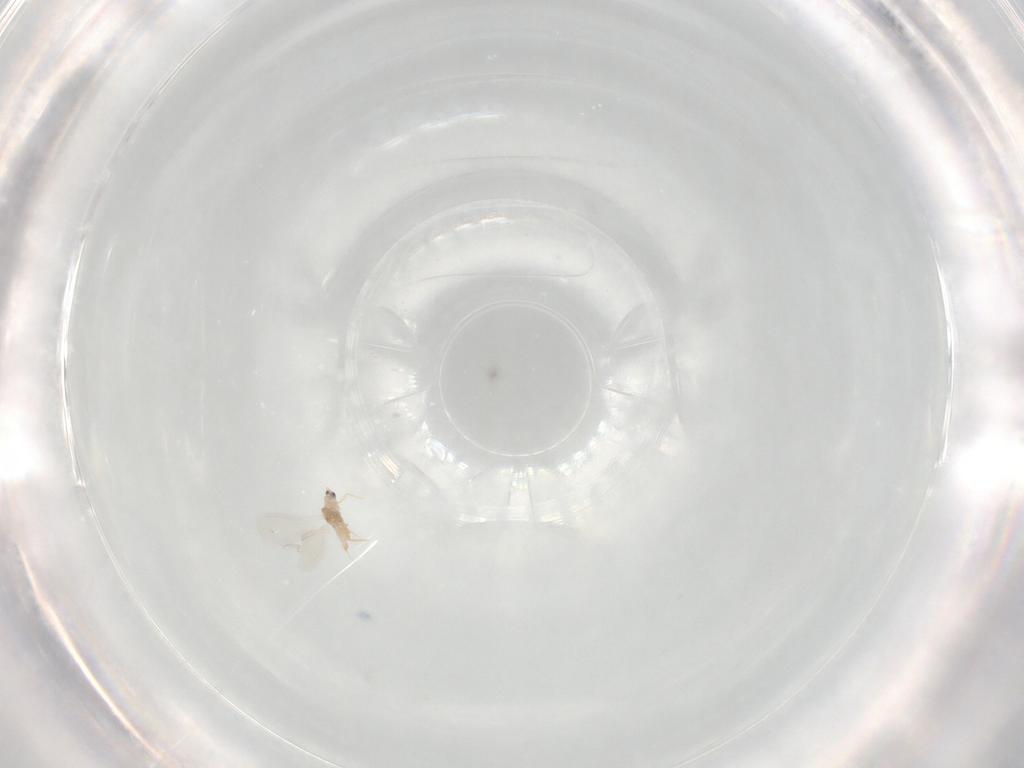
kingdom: Animalia
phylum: Arthropoda
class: Insecta
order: Hemiptera
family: Diaspididae
